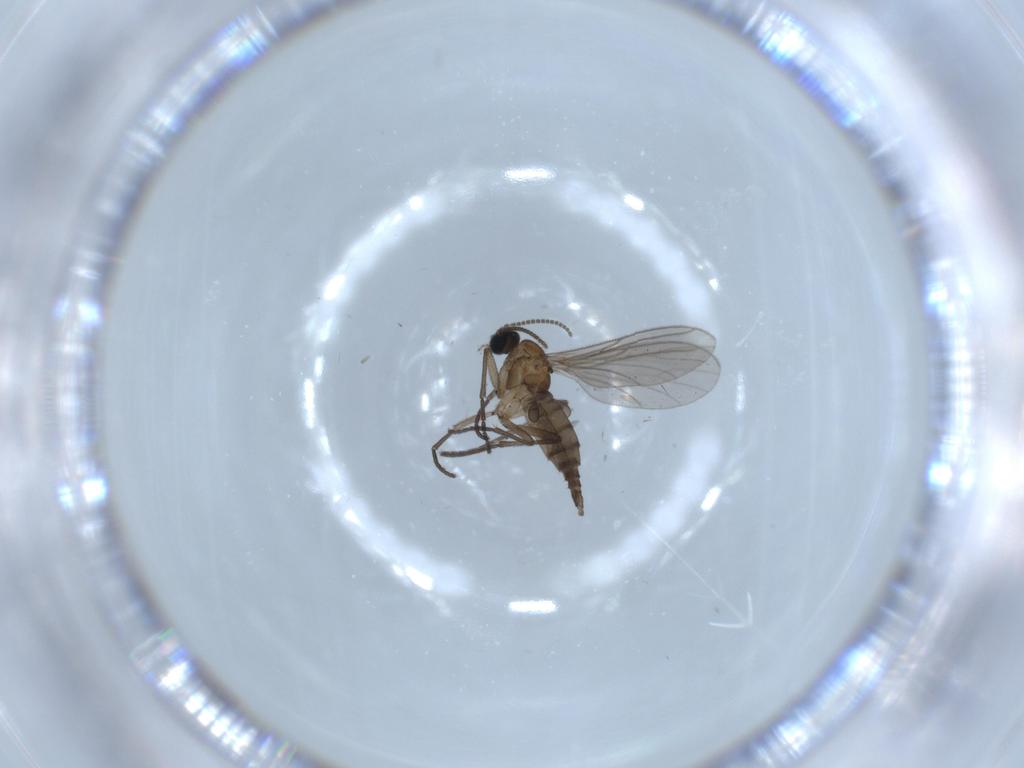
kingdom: Animalia
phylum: Arthropoda
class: Insecta
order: Diptera
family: Sciaridae
